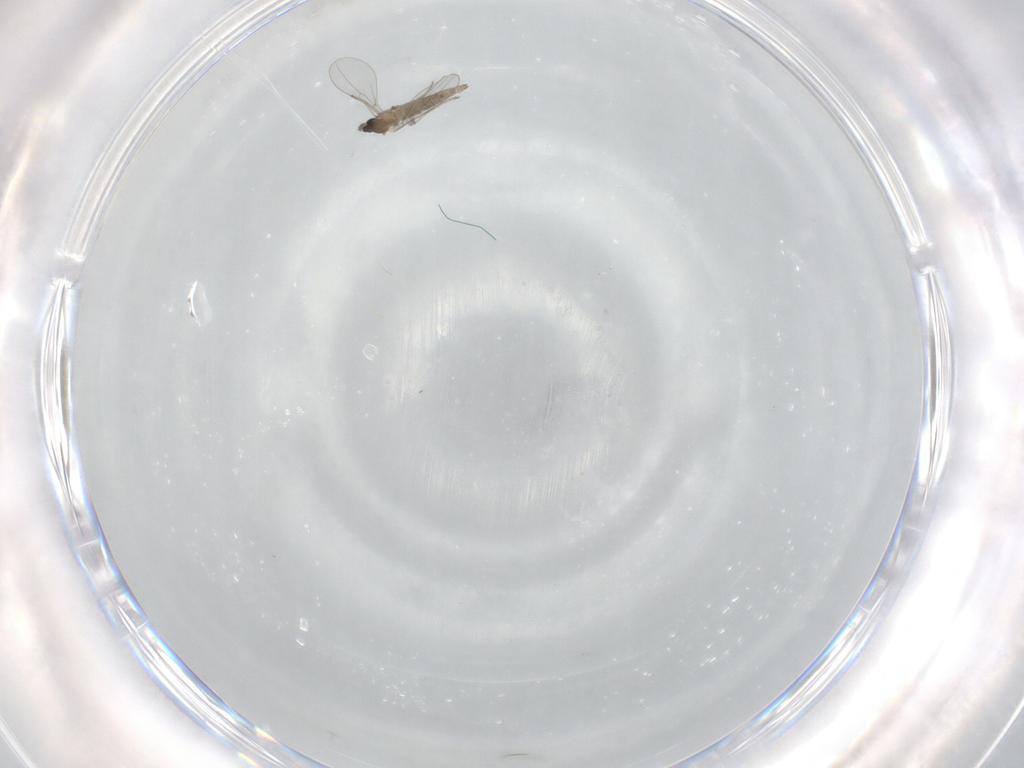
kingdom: Animalia
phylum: Arthropoda
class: Insecta
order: Diptera
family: Cecidomyiidae
